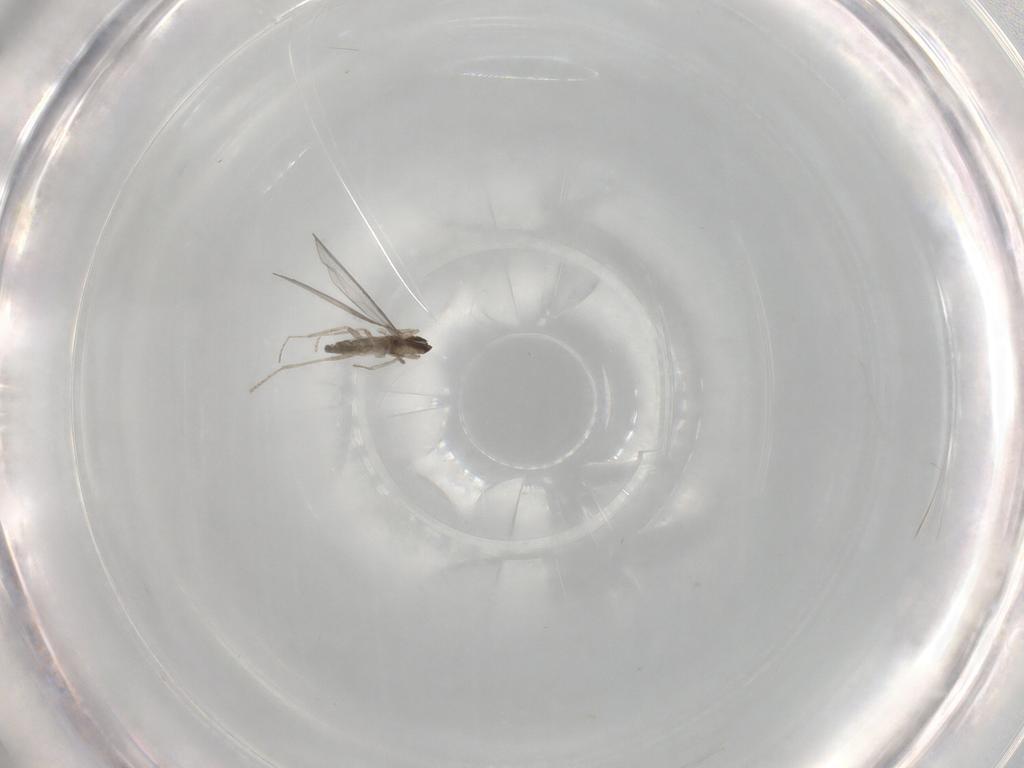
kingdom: Animalia
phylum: Arthropoda
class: Insecta
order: Diptera
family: Cecidomyiidae
